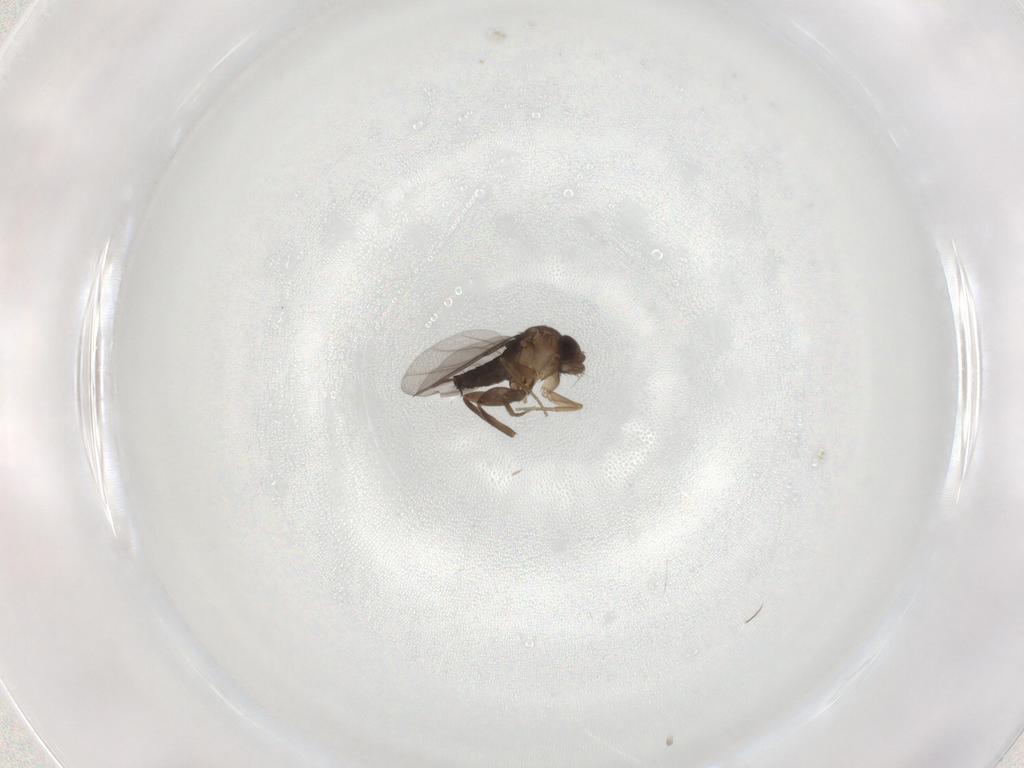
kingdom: Animalia
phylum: Arthropoda
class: Insecta
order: Diptera
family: Phoridae
